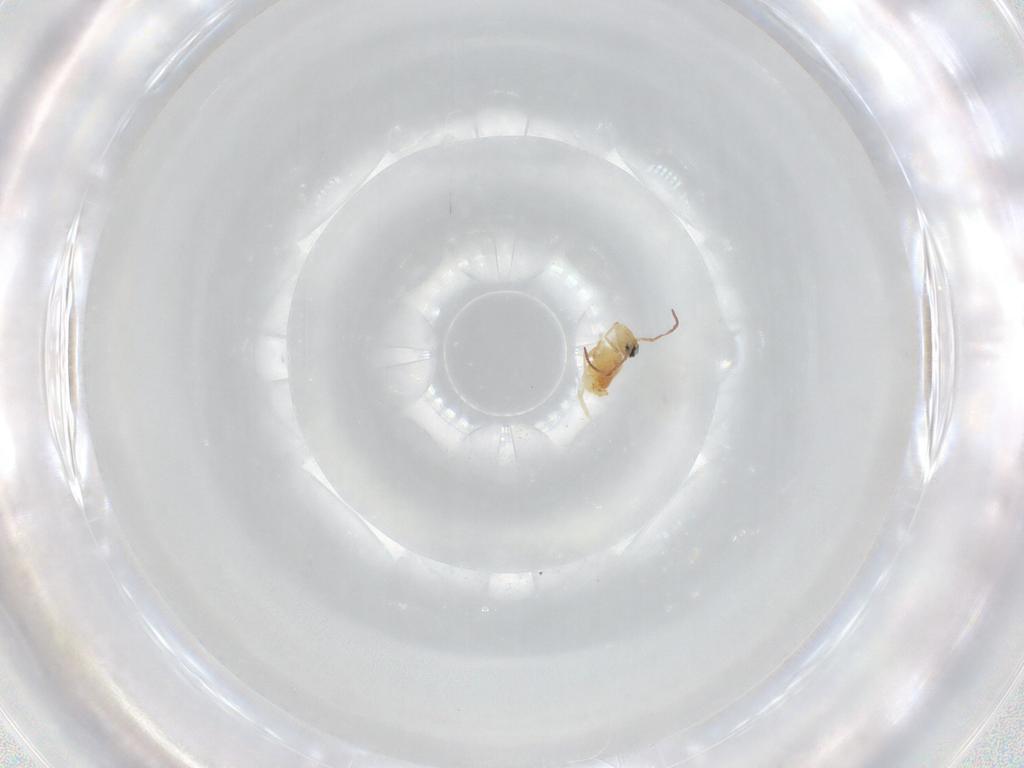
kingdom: Animalia
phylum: Arthropoda
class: Collembola
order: Symphypleona
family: Bourletiellidae
